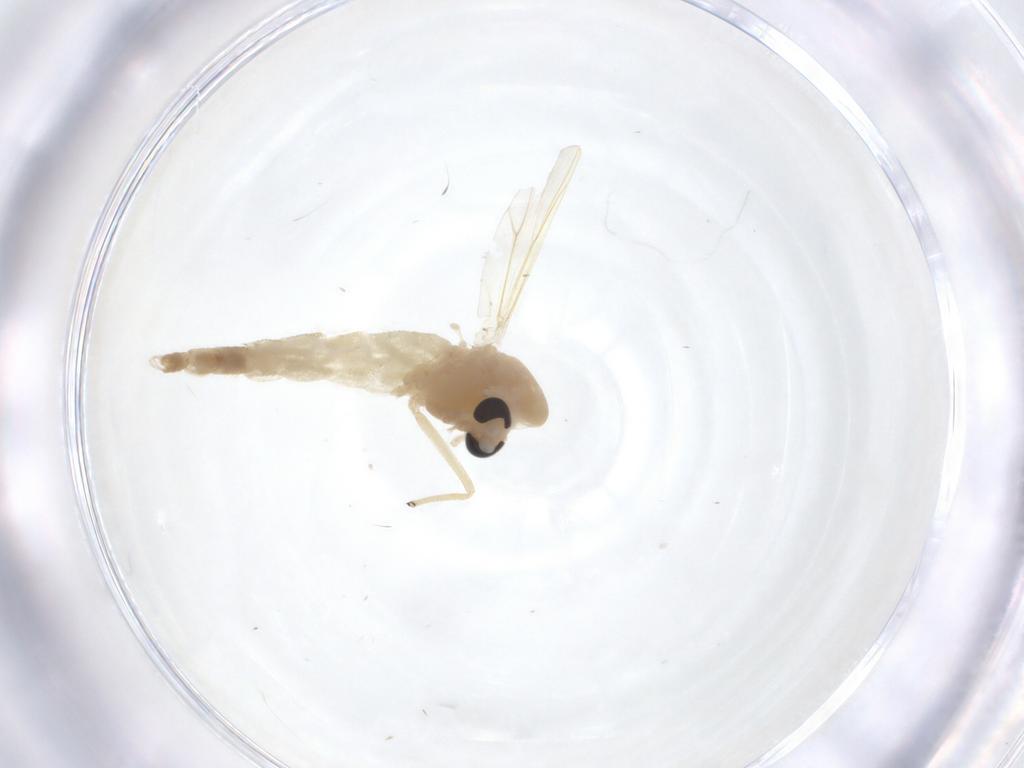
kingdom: Animalia
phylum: Arthropoda
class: Insecta
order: Diptera
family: Chironomidae
